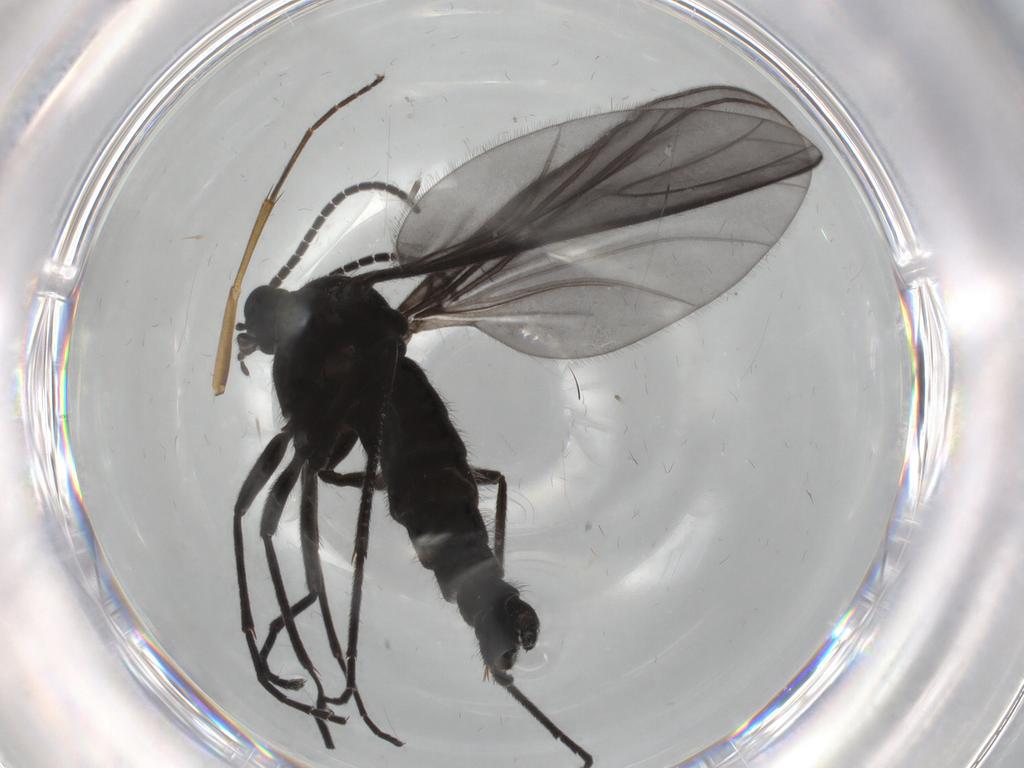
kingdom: Animalia
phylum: Arthropoda
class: Insecta
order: Diptera
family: Mycetophilidae
